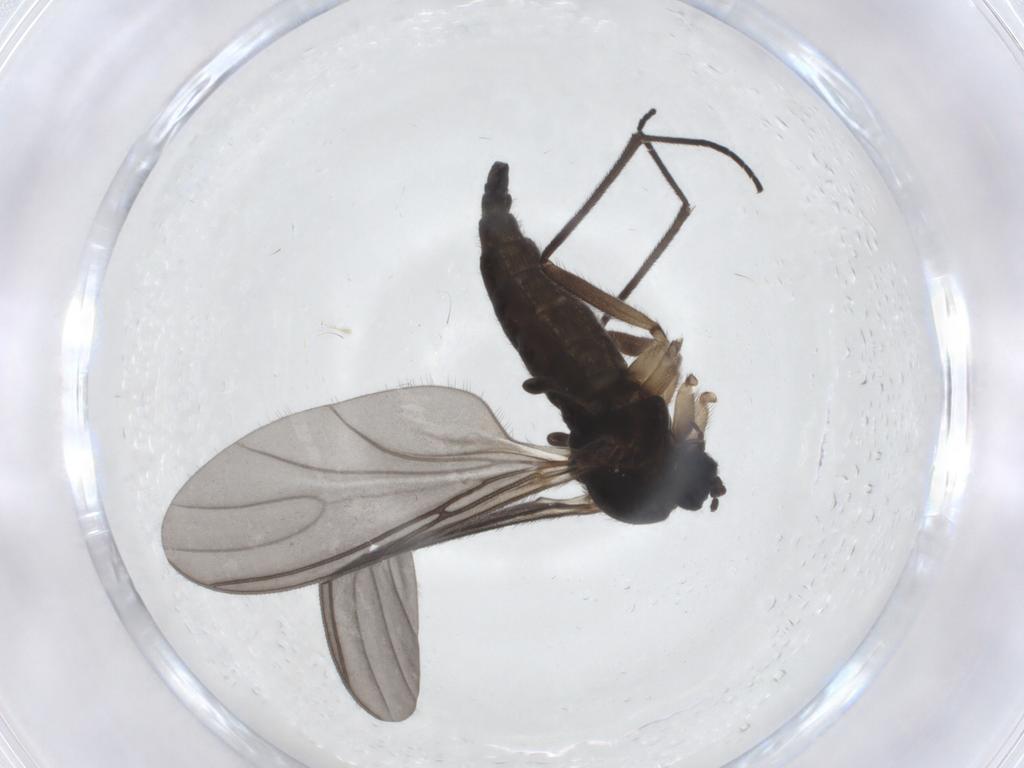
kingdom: Animalia
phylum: Arthropoda
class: Insecta
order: Diptera
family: Sciaridae
